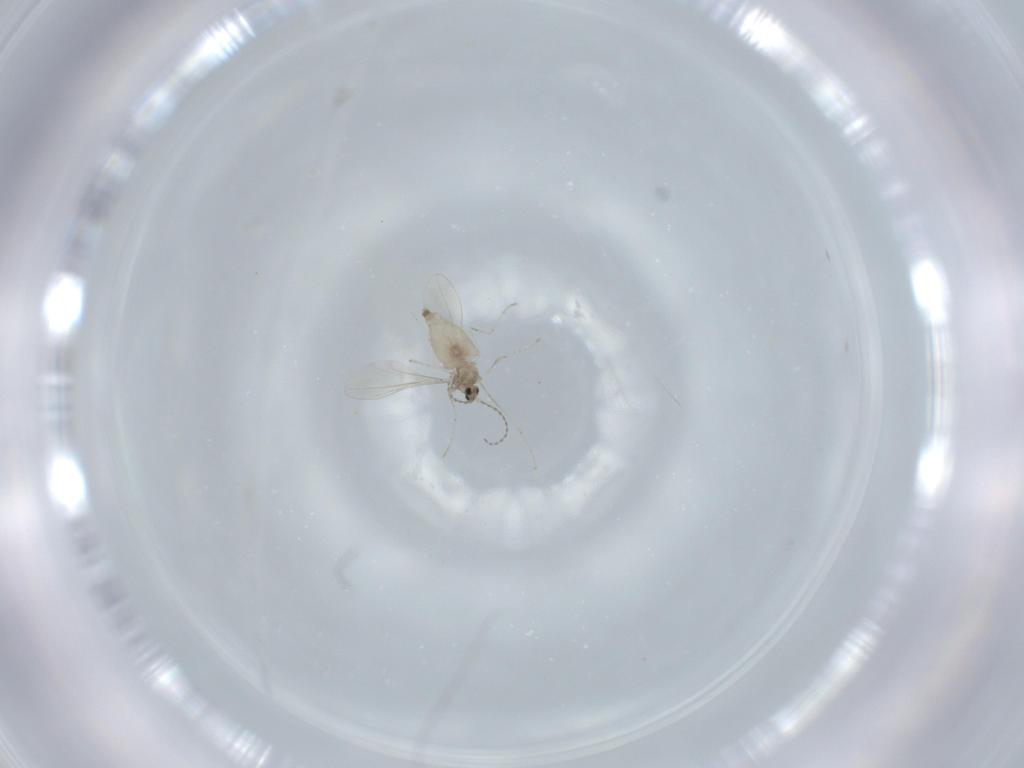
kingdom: Animalia
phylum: Arthropoda
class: Insecta
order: Diptera
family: Cecidomyiidae
